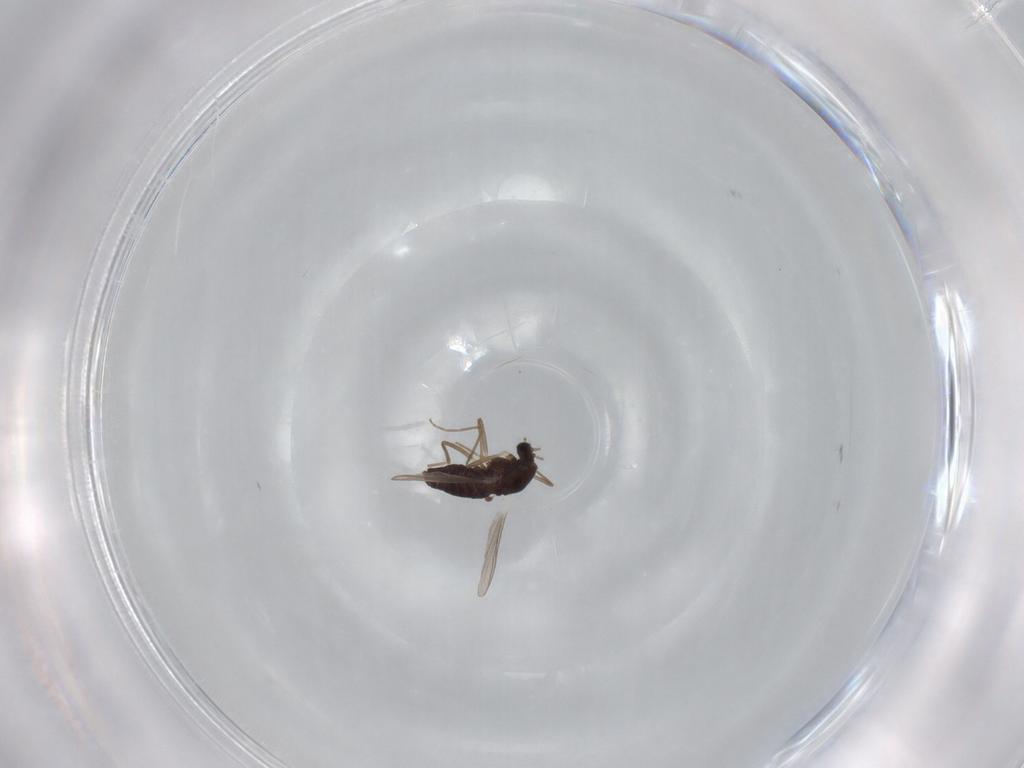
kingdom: Animalia
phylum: Arthropoda
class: Insecta
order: Diptera
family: Chironomidae
